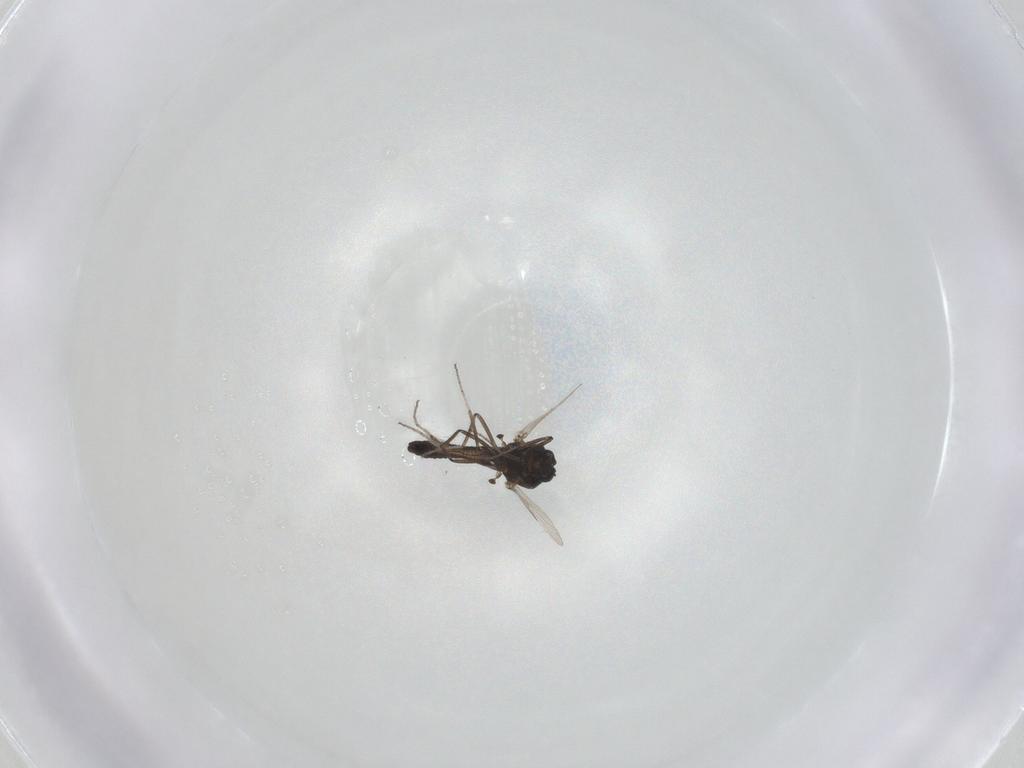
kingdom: Animalia
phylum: Arthropoda
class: Insecta
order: Diptera
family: Ceratopogonidae
